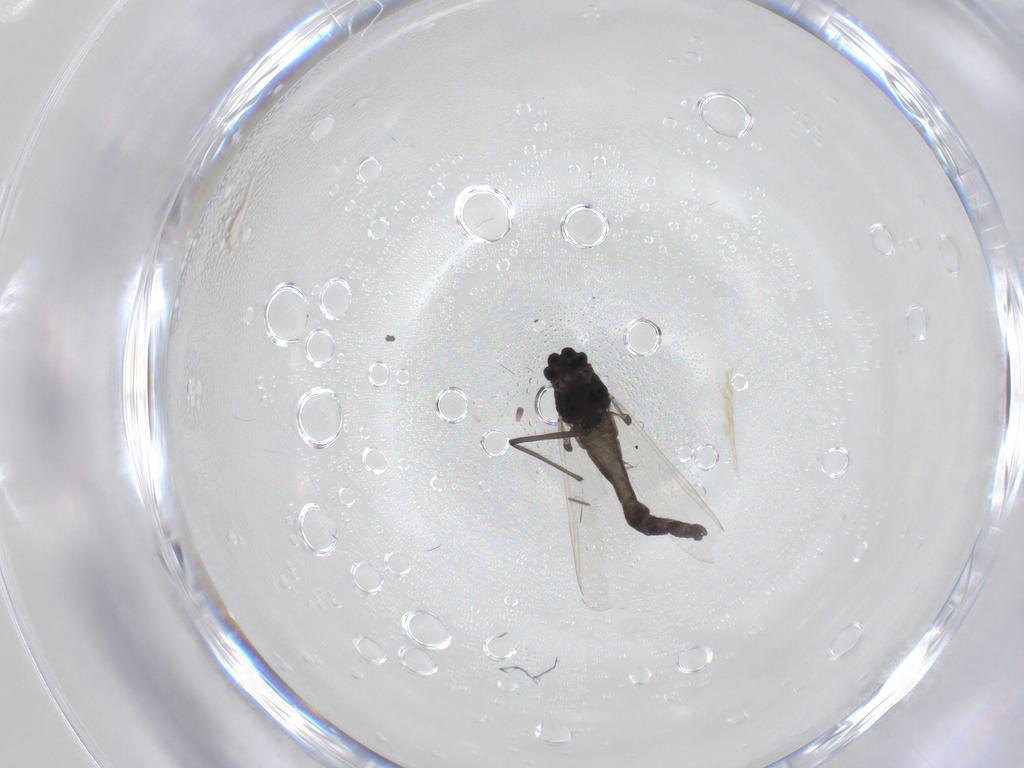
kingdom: Animalia
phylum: Arthropoda
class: Insecta
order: Diptera
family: Chironomidae
